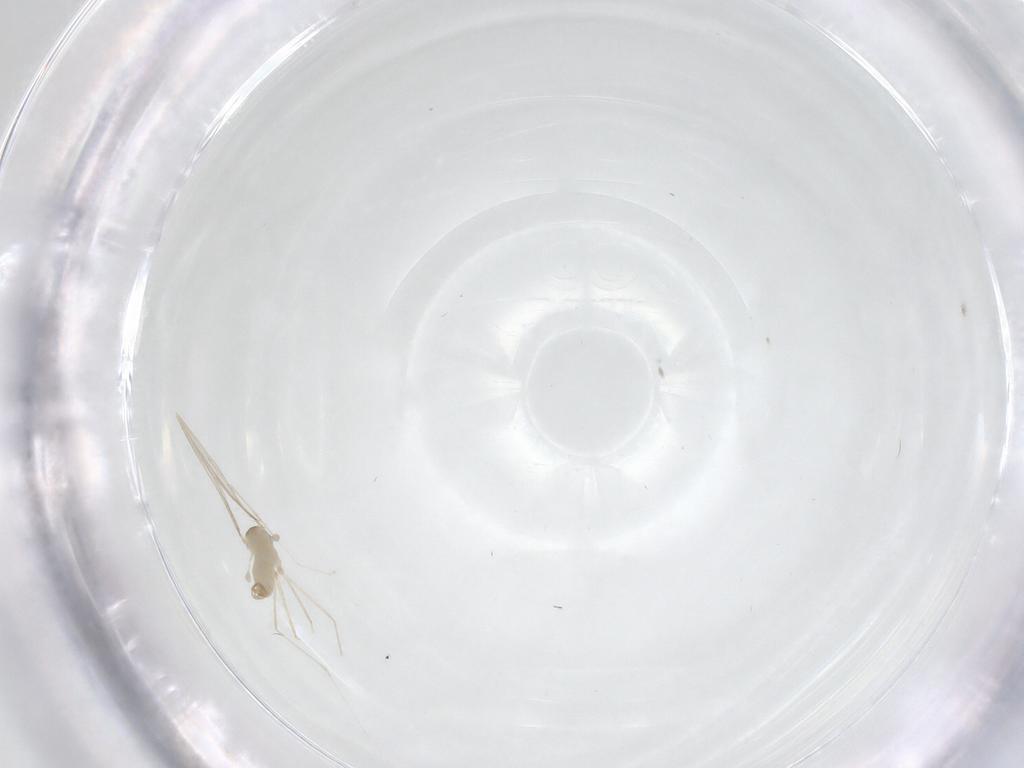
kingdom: Animalia
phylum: Arthropoda
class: Insecta
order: Diptera
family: Cecidomyiidae
